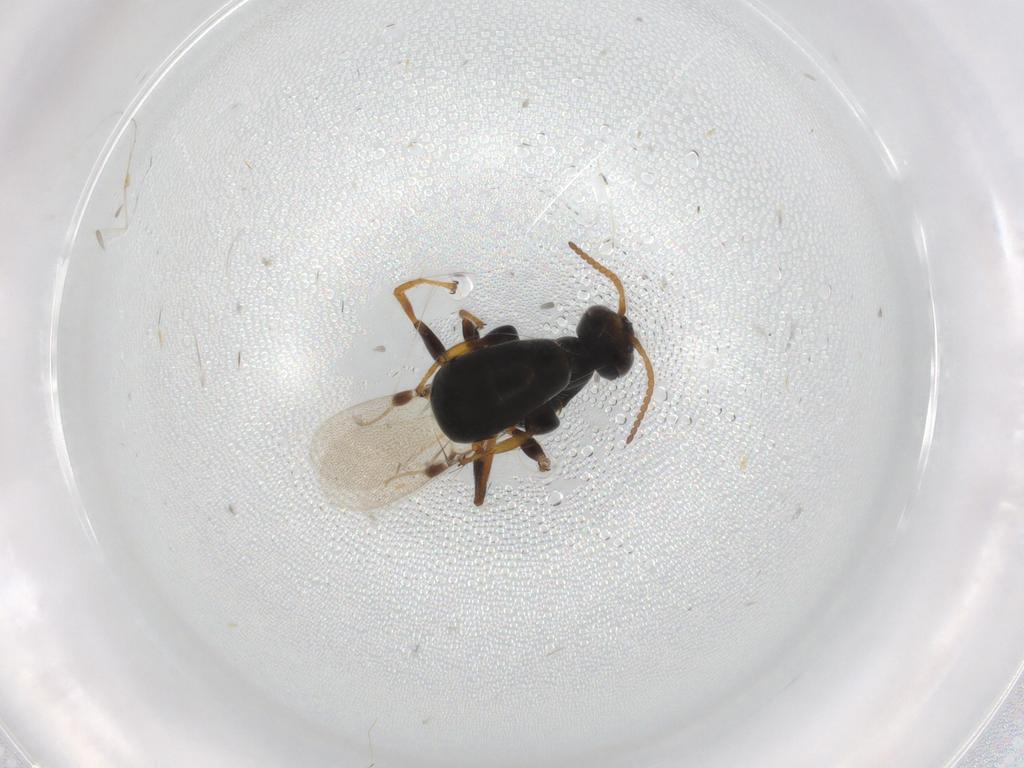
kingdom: Animalia
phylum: Arthropoda
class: Insecta
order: Hymenoptera
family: Bethylidae
